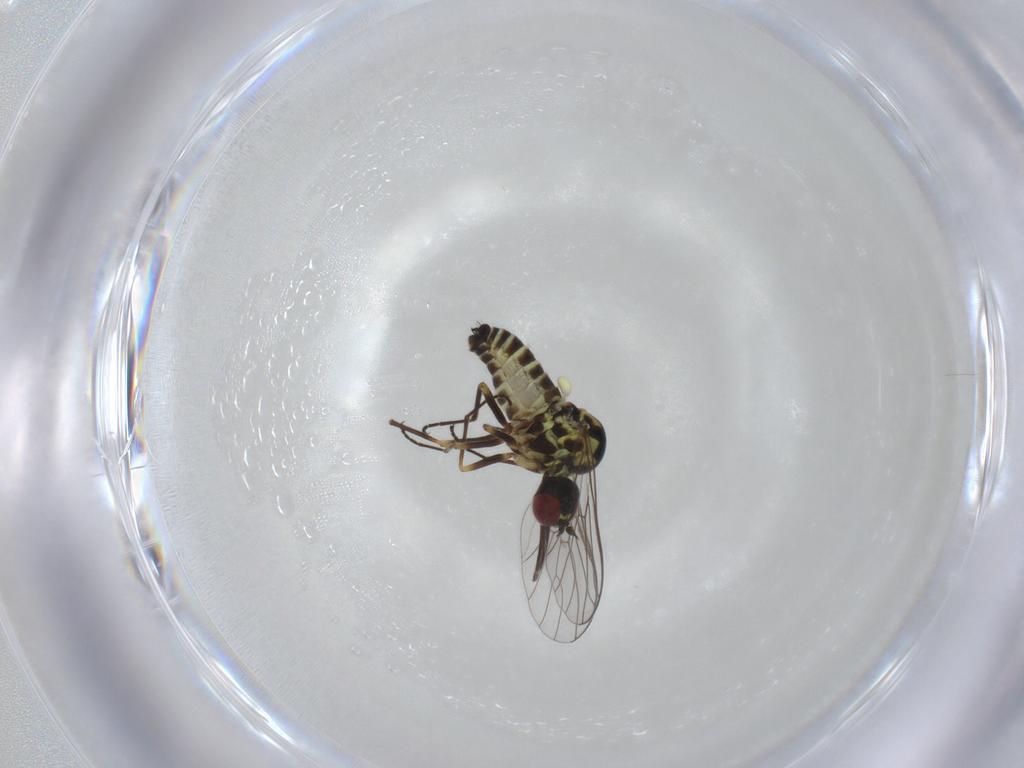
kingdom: Animalia
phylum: Arthropoda
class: Insecta
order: Diptera
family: Bombyliidae
